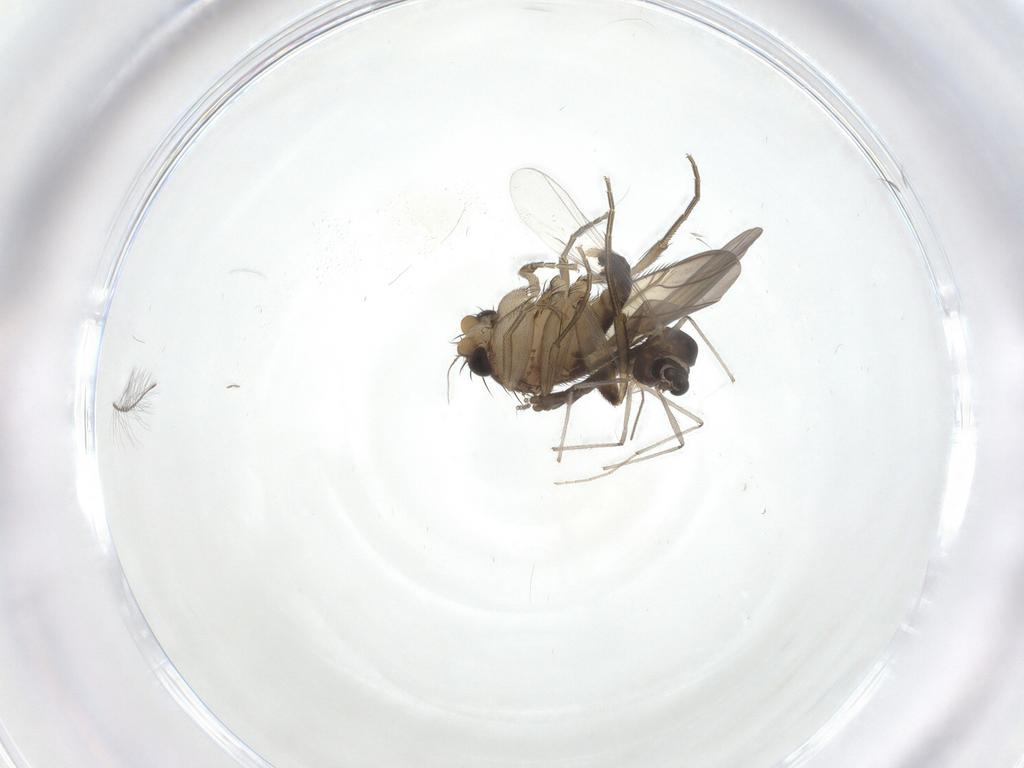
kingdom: Animalia
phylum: Arthropoda
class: Insecta
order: Diptera
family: Phoridae
